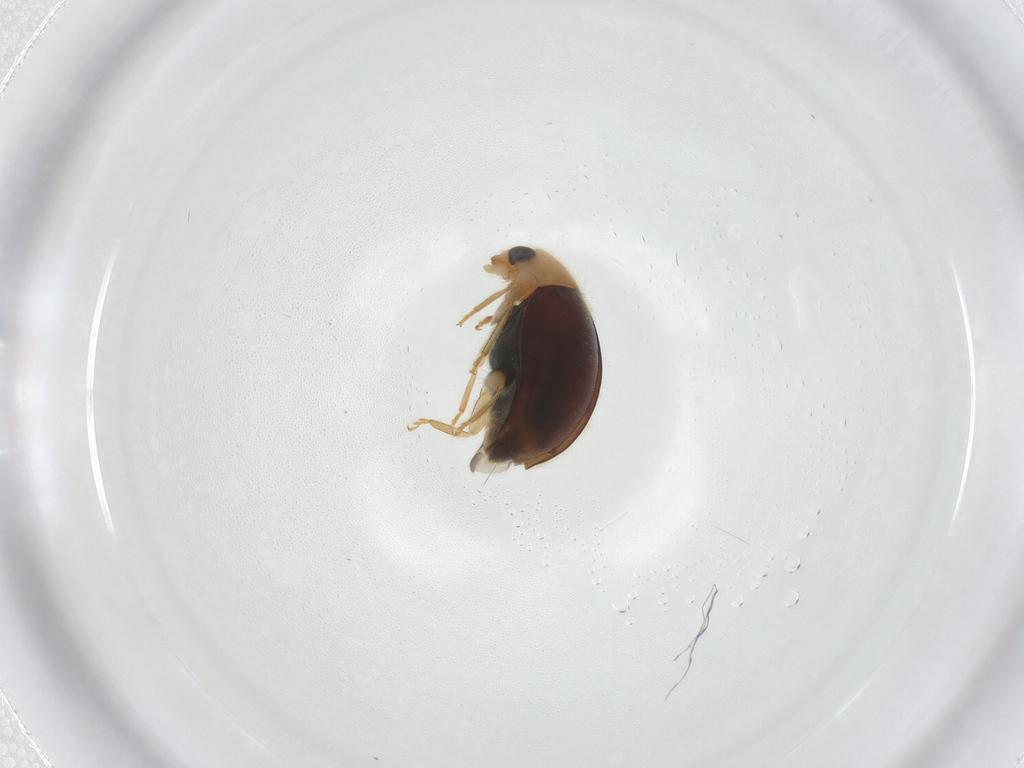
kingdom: Animalia
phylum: Arthropoda
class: Insecta
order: Coleoptera
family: Coccinellidae
